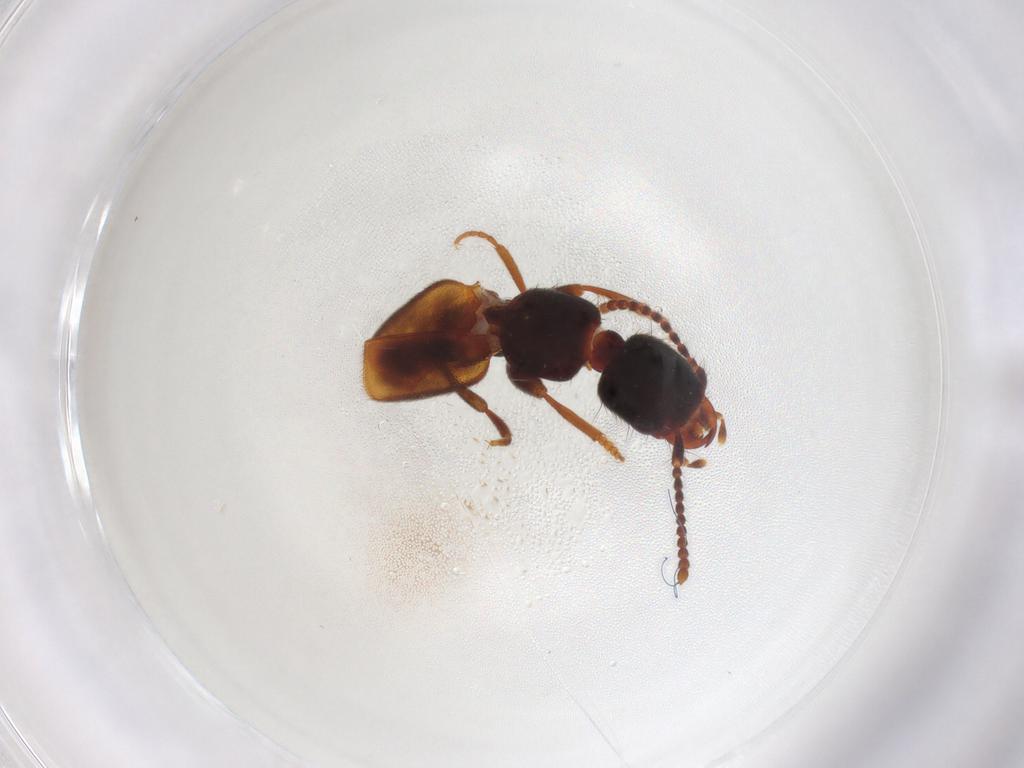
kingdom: Animalia
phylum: Arthropoda
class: Insecta
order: Coleoptera
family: Staphylinidae
